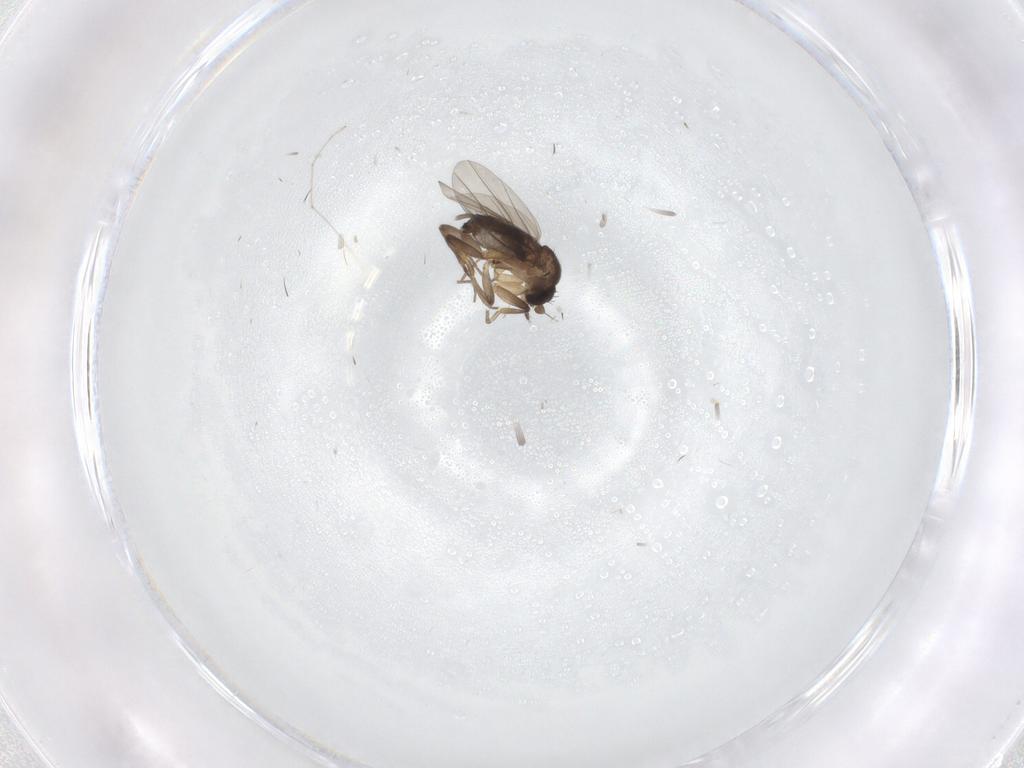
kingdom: Animalia
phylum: Arthropoda
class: Insecta
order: Diptera
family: Phoridae
